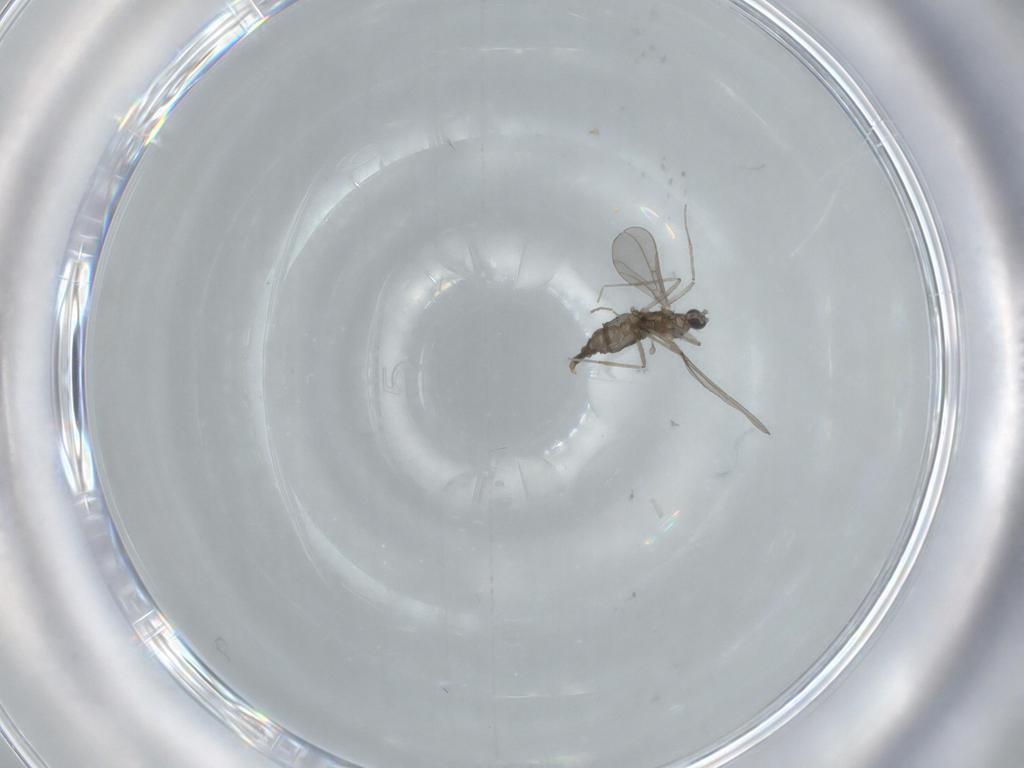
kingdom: Animalia
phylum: Arthropoda
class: Insecta
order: Diptera
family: Cecidomyiidae
